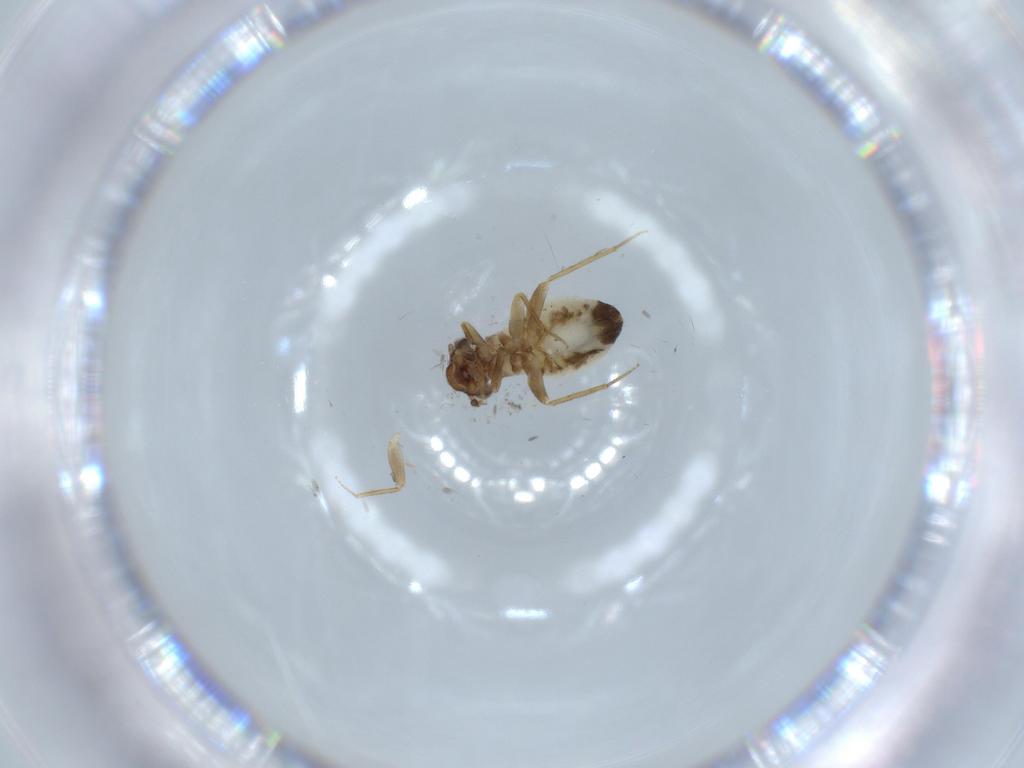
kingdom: Animalia
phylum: Arthropoda
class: Insecta
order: Psocodea
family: Lepidopsocidae
